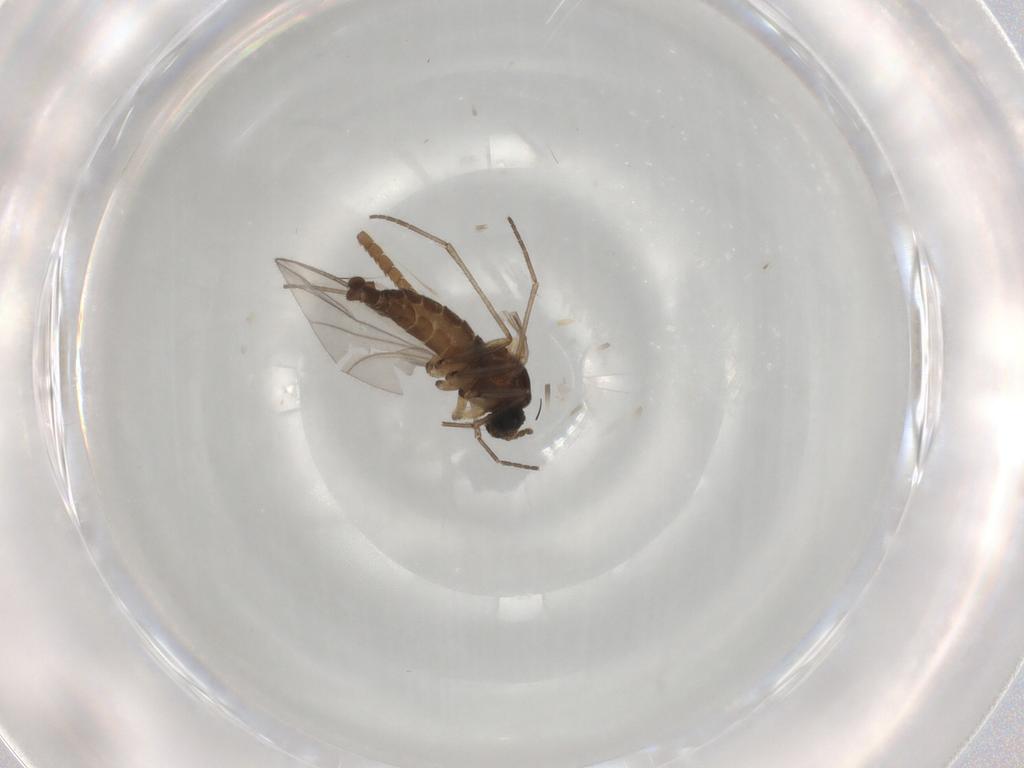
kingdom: Animalia
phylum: Arthropoda
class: Insecta
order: Diptera
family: Sciaridae
